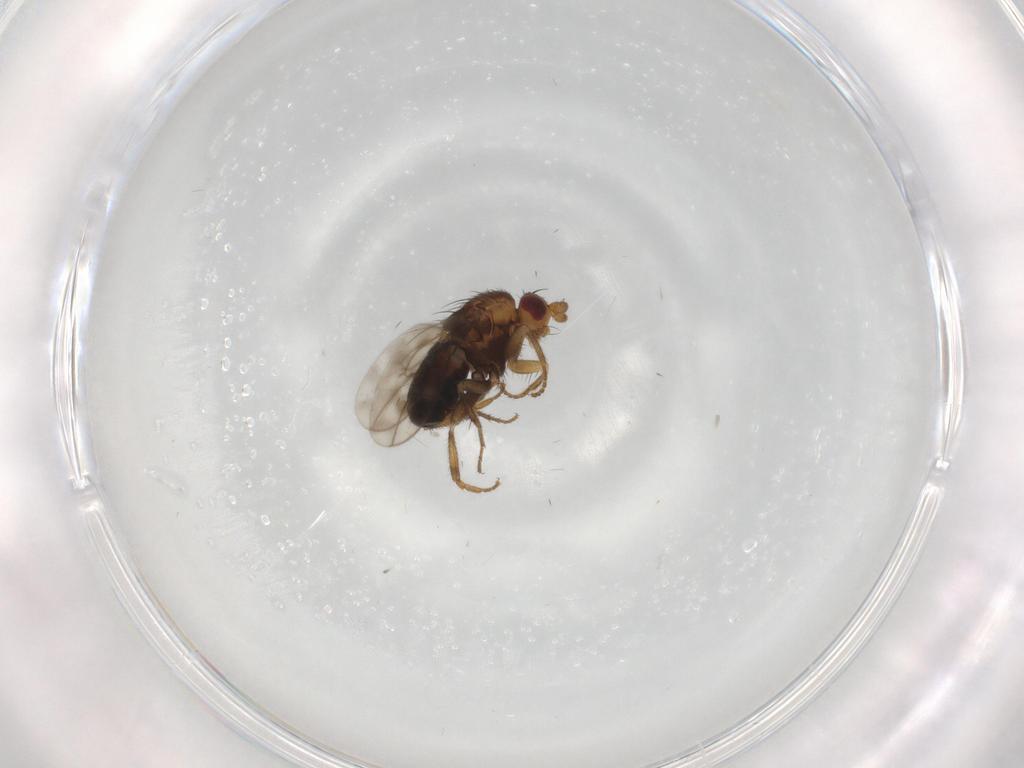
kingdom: Animalia
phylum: Arthropoda
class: Insecta
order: Diptera
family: Sphaeroceridae
